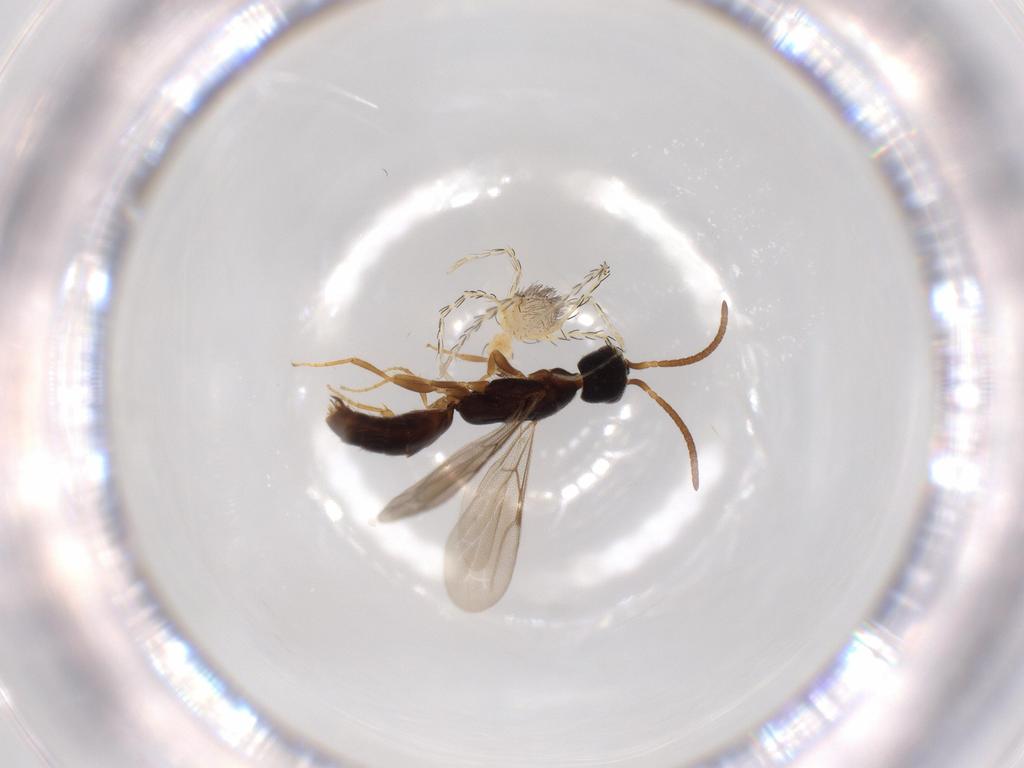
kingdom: Animalia
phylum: Arthropoda
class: Arachnida
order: Trombidiformes
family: Erythraeidae
